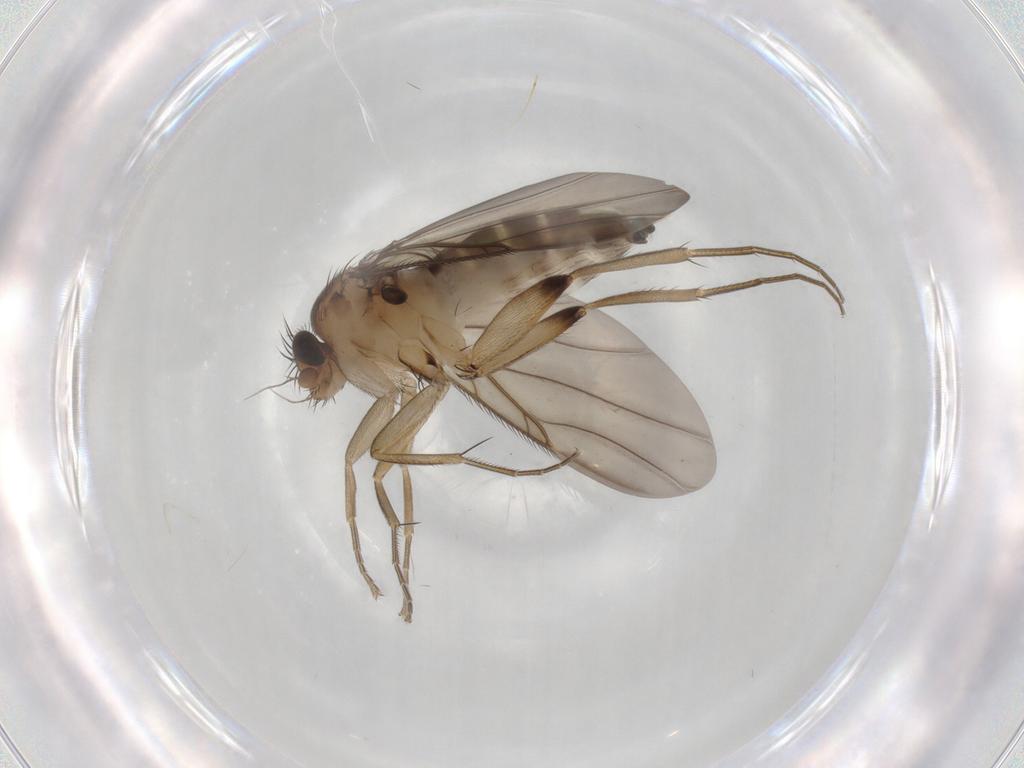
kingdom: Animalia
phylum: Arthropoda
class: Insecta
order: Diptera
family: Phoridae
